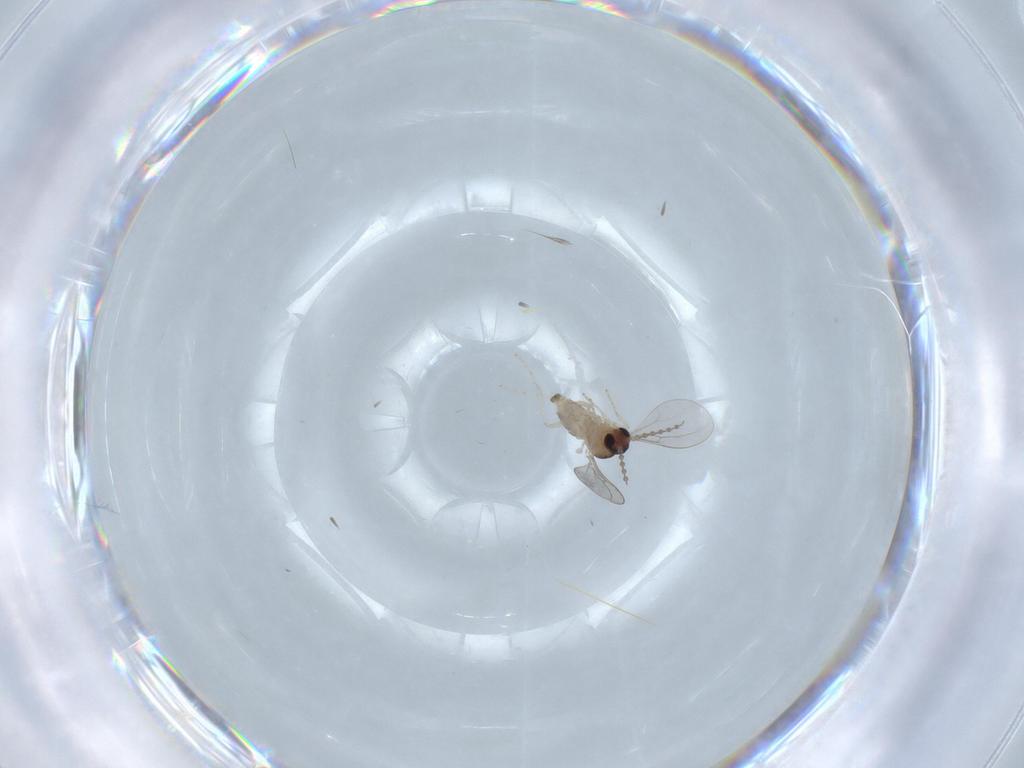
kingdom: Animalia
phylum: Arthropoda
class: Insecta
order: Diptera
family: Cecidomyiidae
